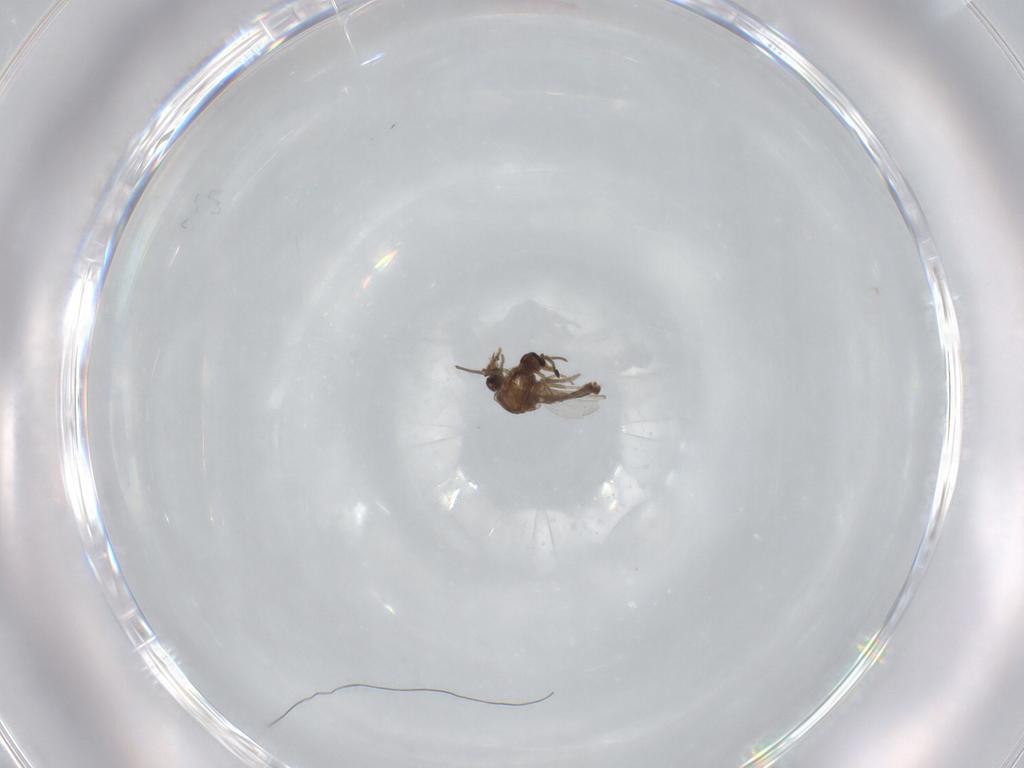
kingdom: Animalia
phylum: Arthropoda
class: Insecta
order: Diptera
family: Ceratopogonidae
